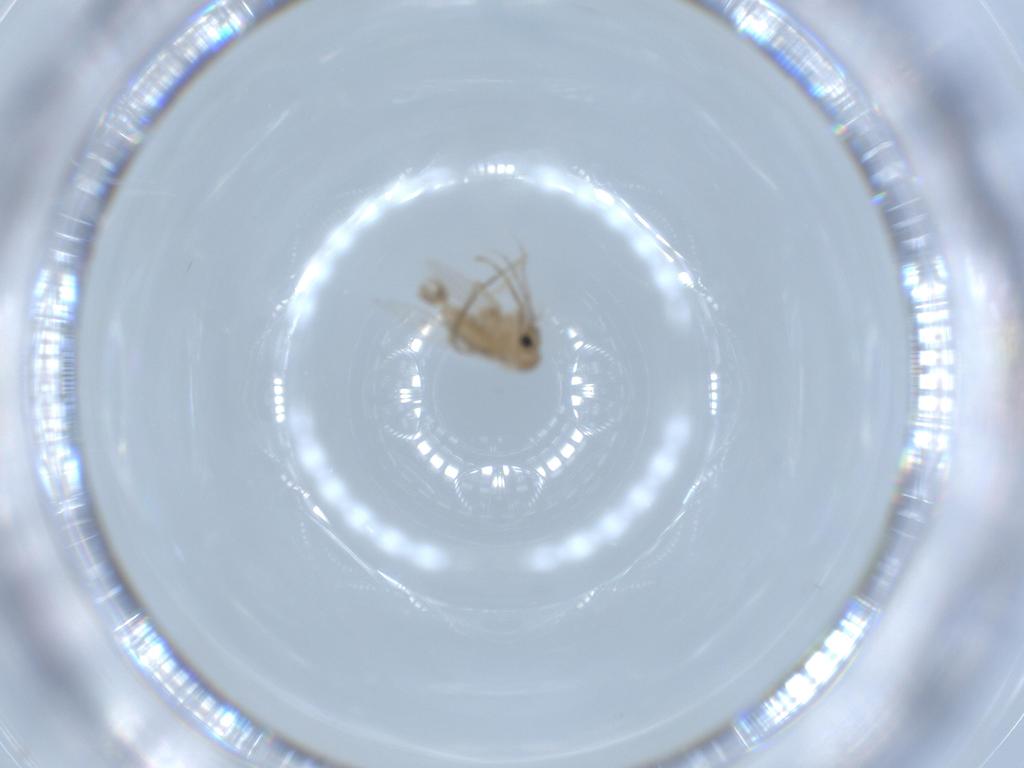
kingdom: Animalia
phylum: Arthropoda
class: Insecta
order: Diptera
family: Psychodidae
